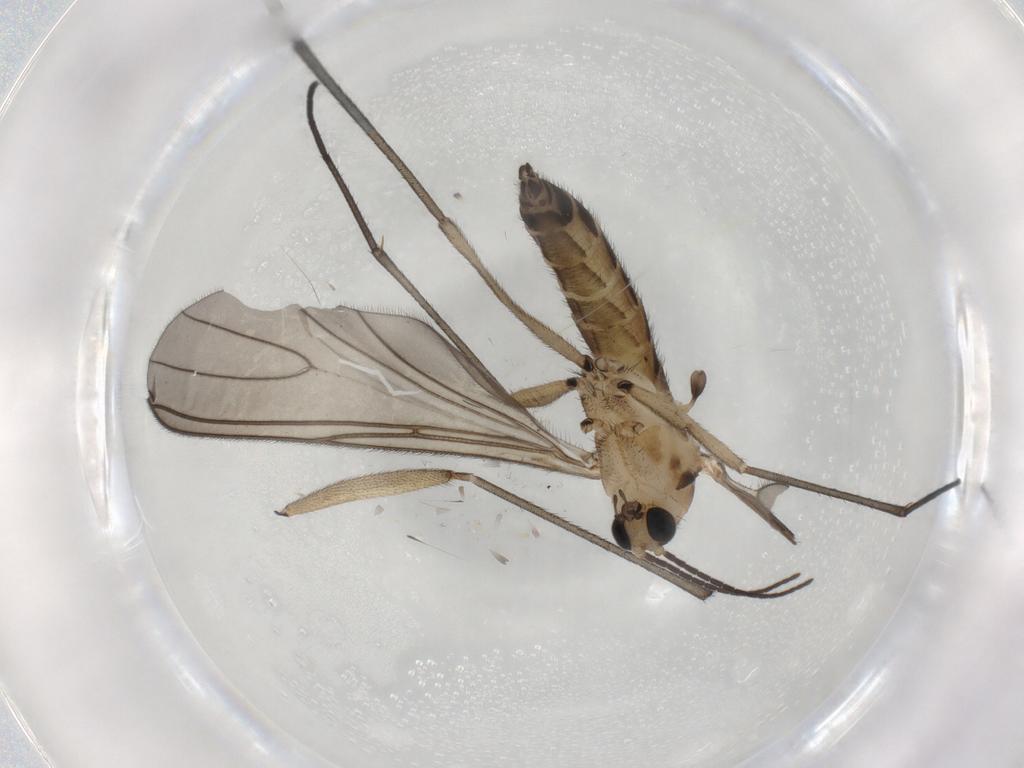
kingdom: Animalia
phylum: Arthropoda
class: Insecta
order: Diptera
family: Sciaridae
